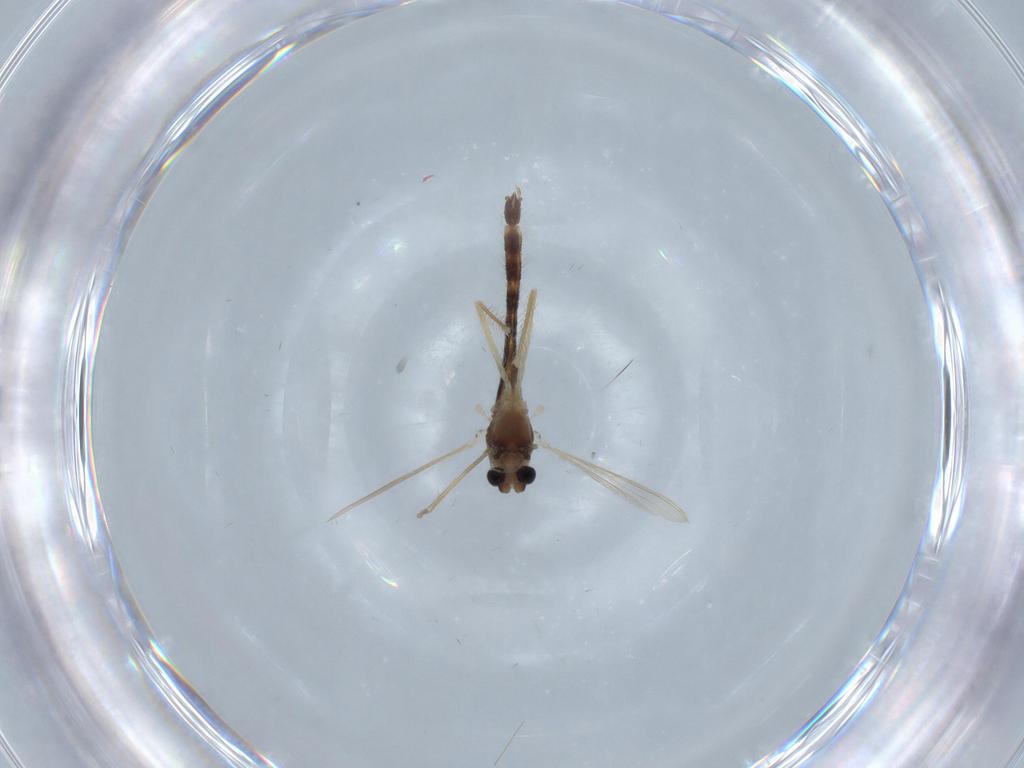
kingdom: Animalia
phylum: Arthropoda
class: Insecta
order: Diptera
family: Chironomidae
